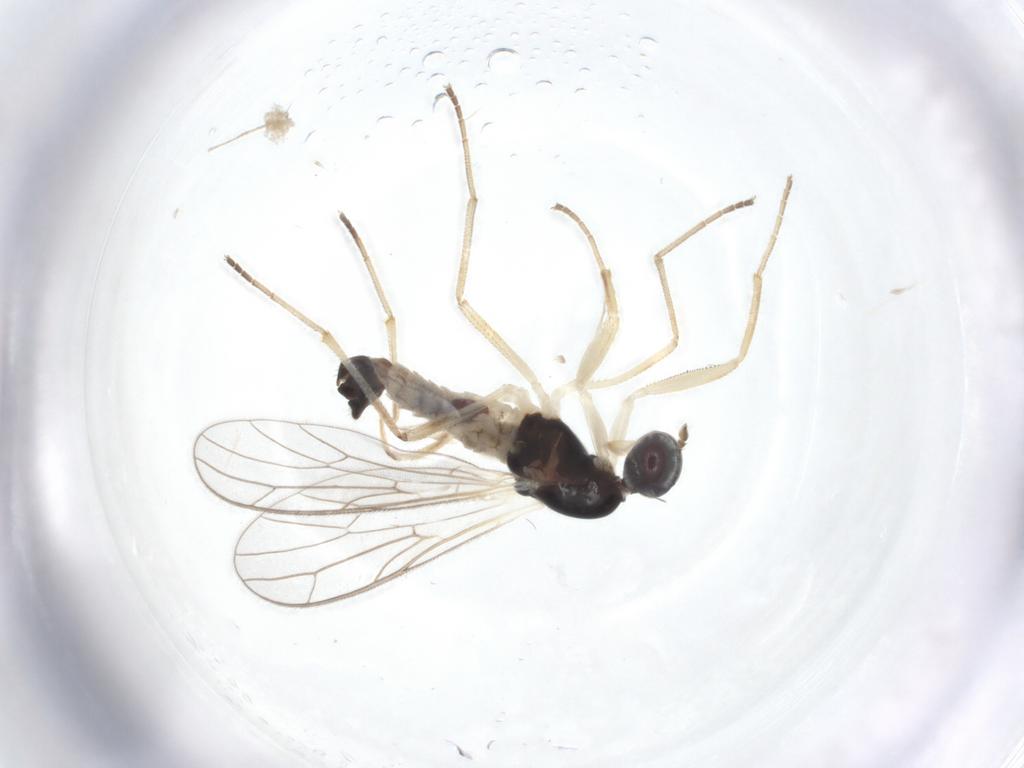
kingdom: Animalia
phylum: Arthropoda
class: Insecta
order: Diptera
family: Empididae
